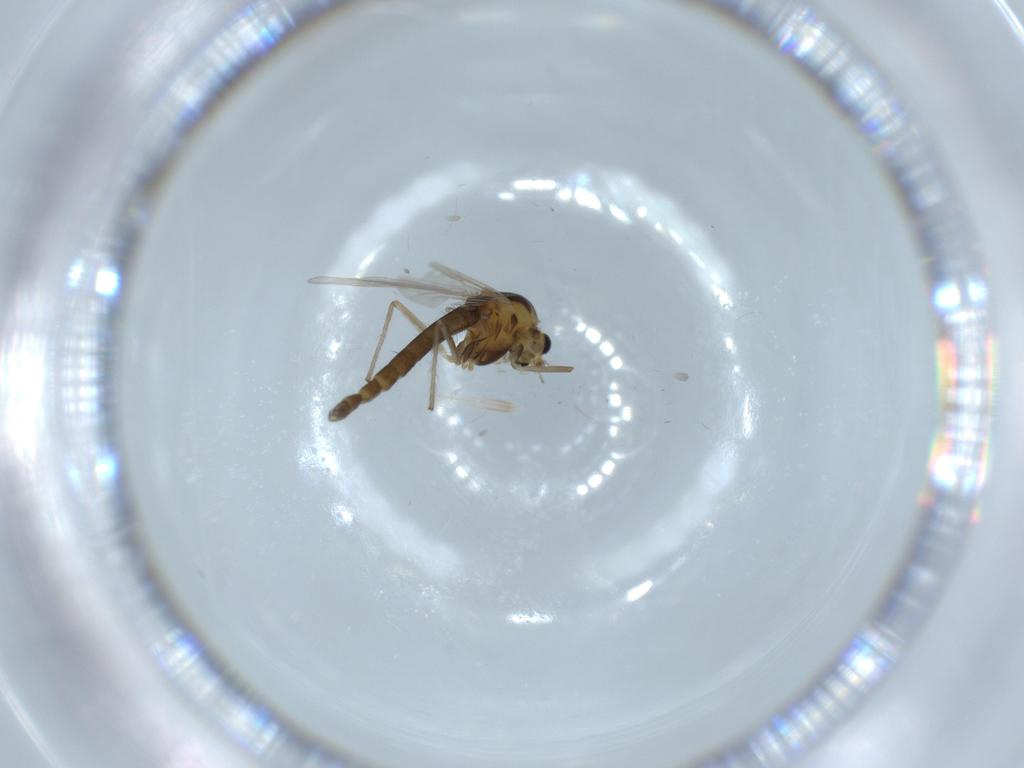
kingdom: Animalia
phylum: Arthropoda
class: Insecta
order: Diptera
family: Chironomidae
